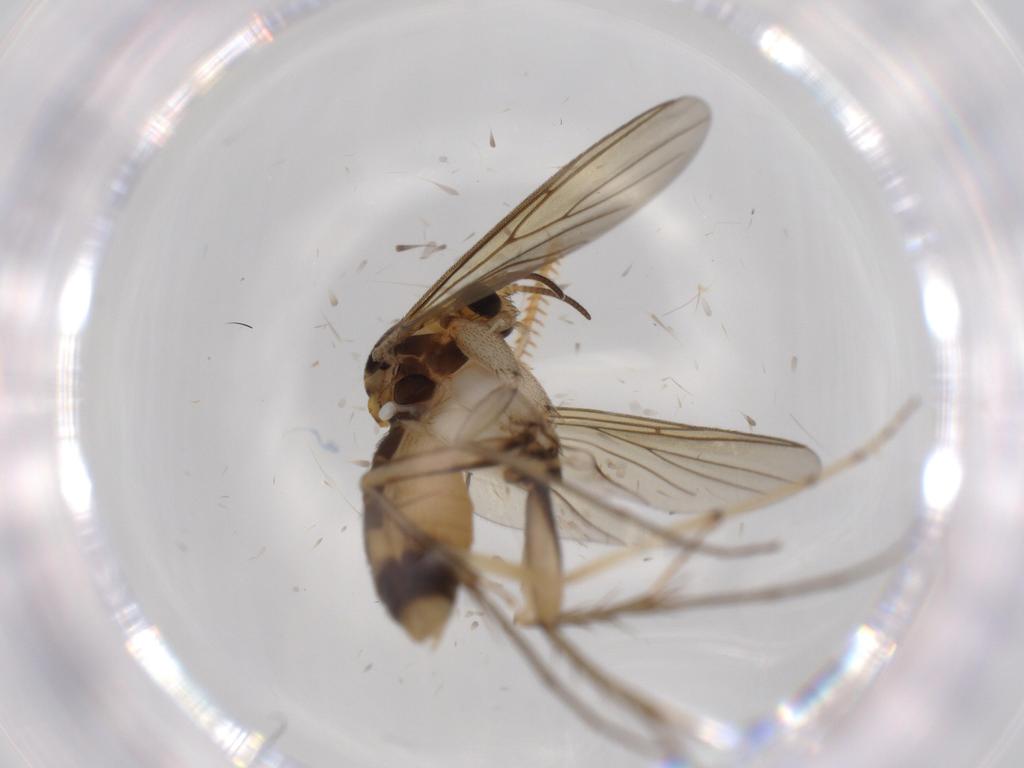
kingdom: Animalia
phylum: Arthropoda
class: Insecta
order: Diptera
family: Mycetophilidae
